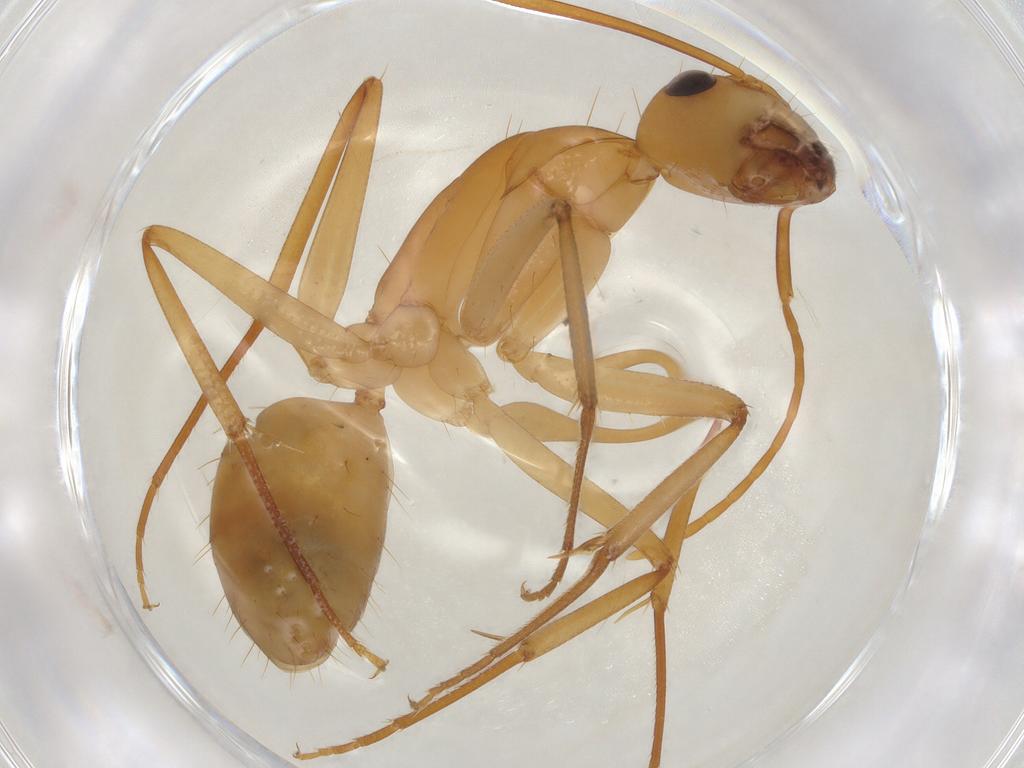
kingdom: Animalia
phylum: Arthropoda
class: Insecta
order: Hymenoptera
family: Formicidae
